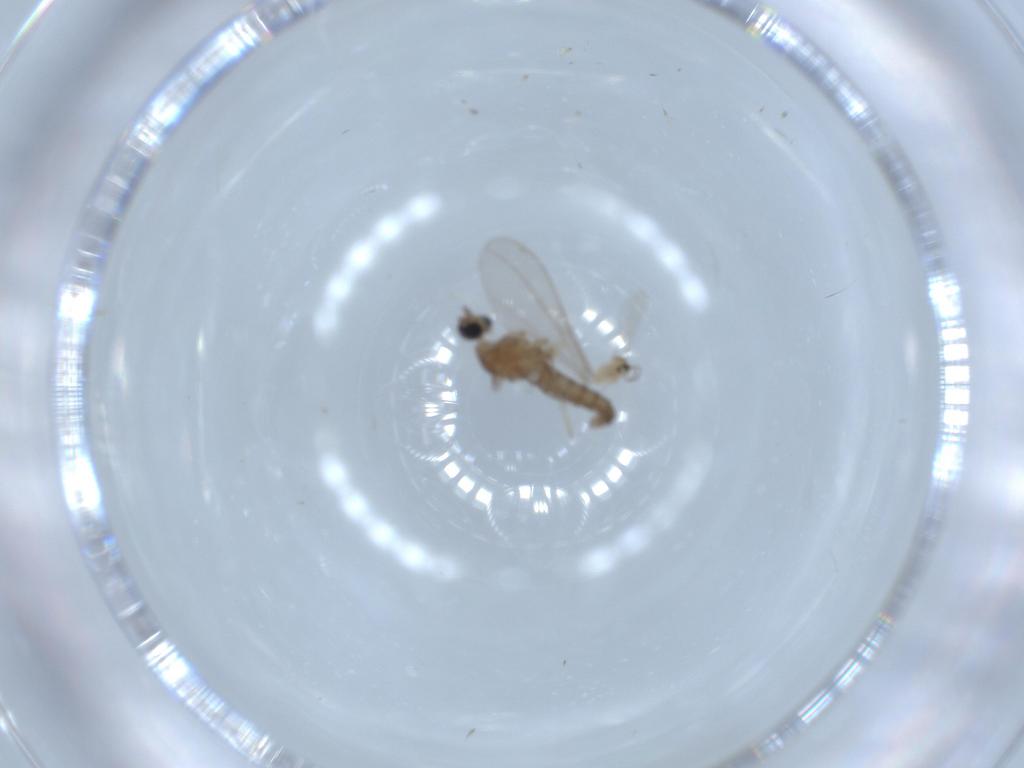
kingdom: Animalia
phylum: Arthropoda
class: Insecta
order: Diptera
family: Cecidomyiidae
